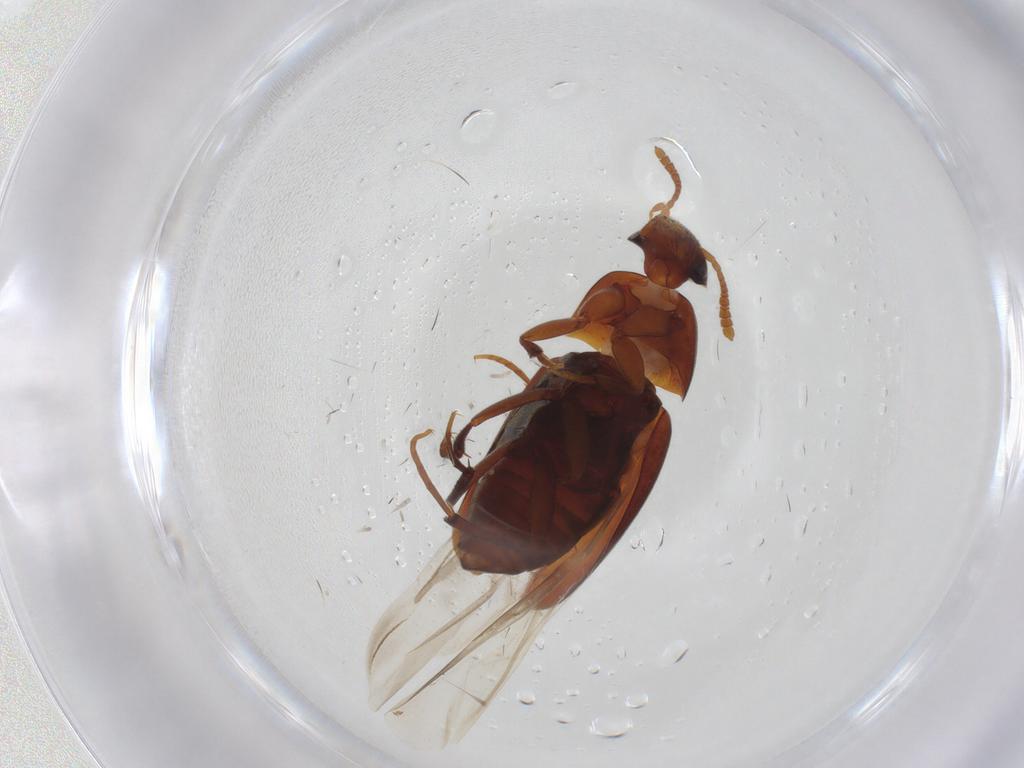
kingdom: Animalia
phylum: Arthropoda
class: Insecta
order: Coleoptera
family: Leiodidae
